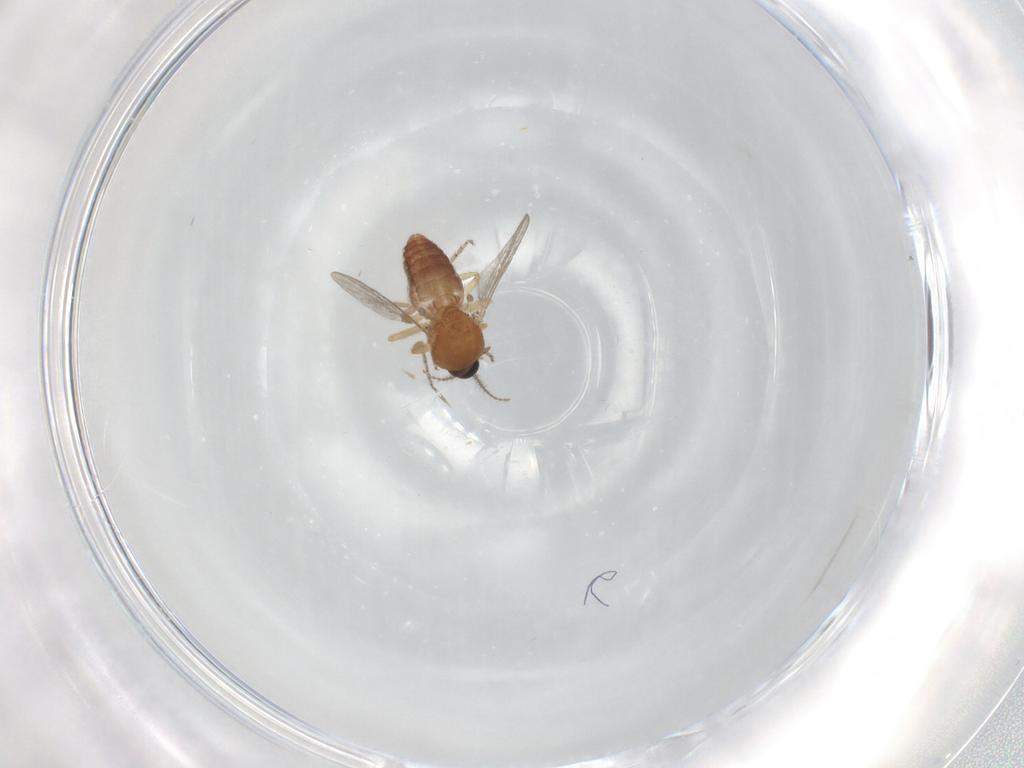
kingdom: Animalia
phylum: Arthropoda
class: Insecta
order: Diptera
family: Ceratopogonidae
